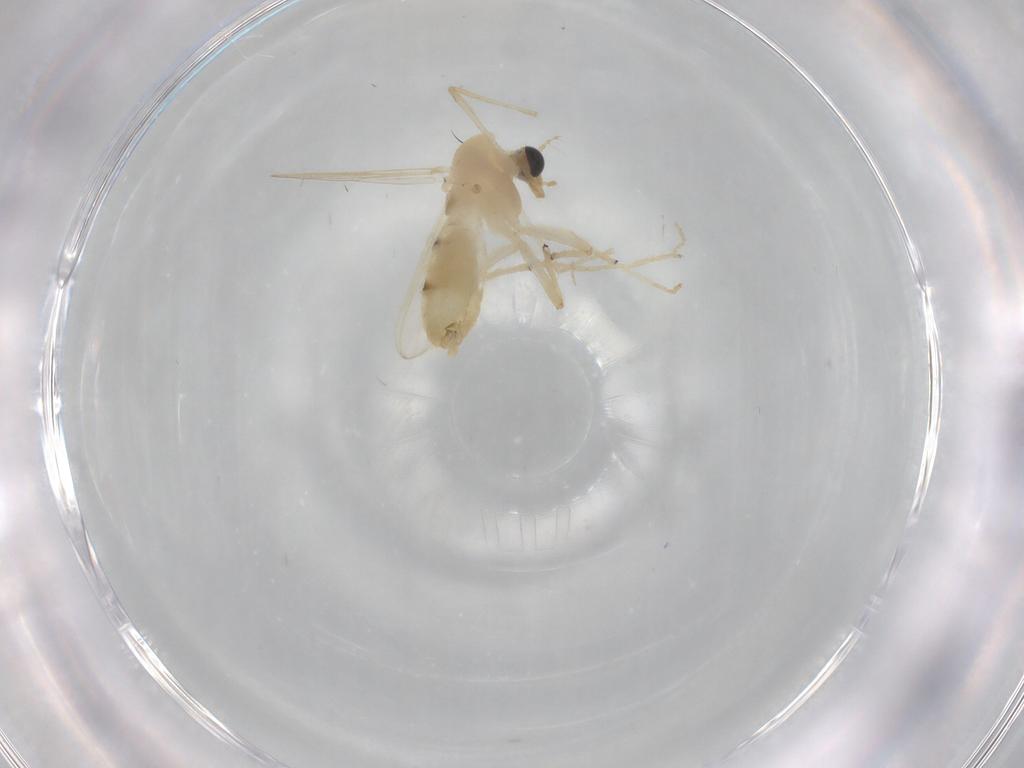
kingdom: Animalia
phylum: Arthropoda
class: Insecta
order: Diptera
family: Chironomidae
